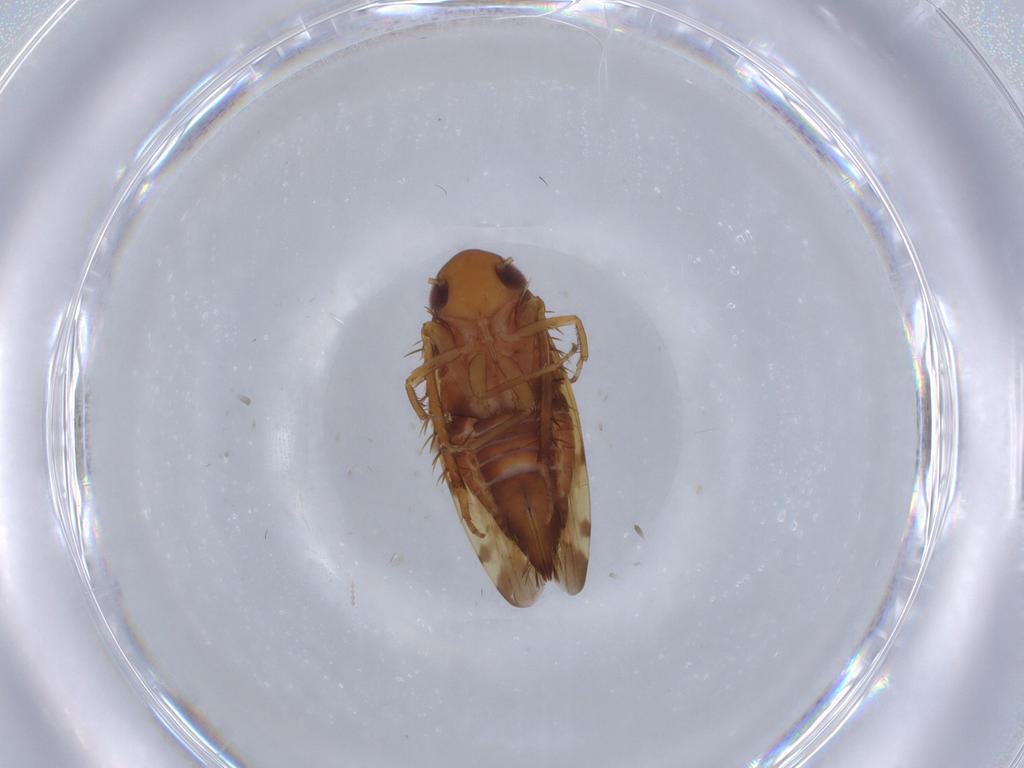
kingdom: Animalia
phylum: Arthropoda
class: Insecta
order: Hemiptera
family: Cicadellidae
